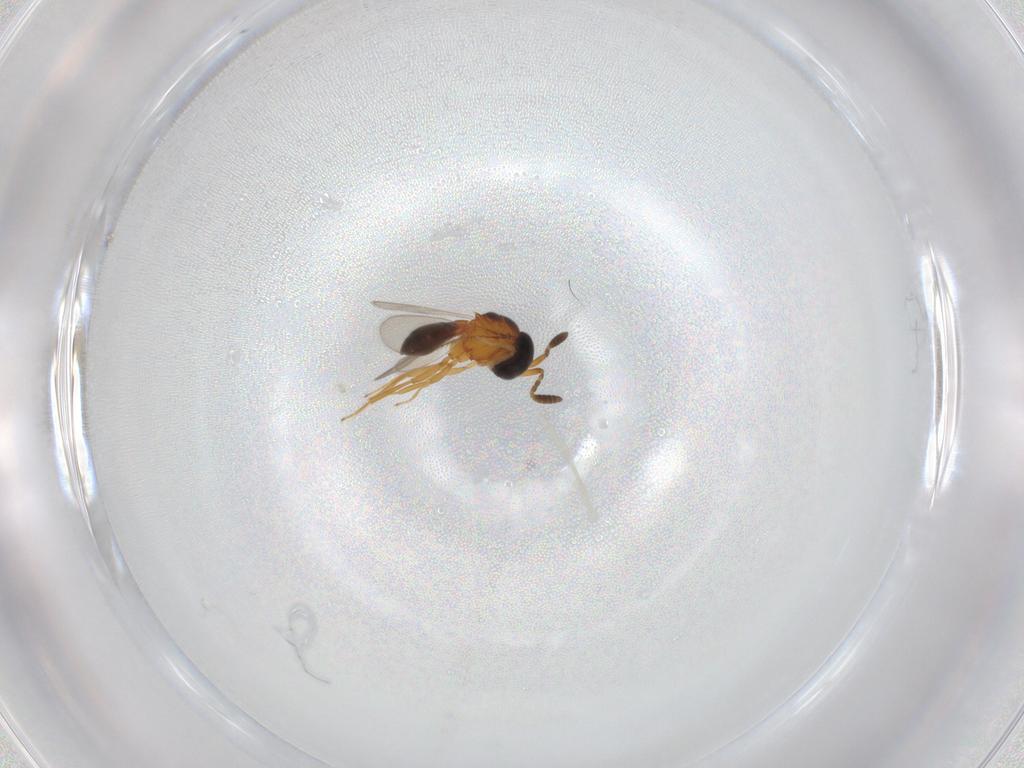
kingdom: Animalia
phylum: Arthropoda
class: Insecta
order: Hymenoptera
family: Scelionidae
